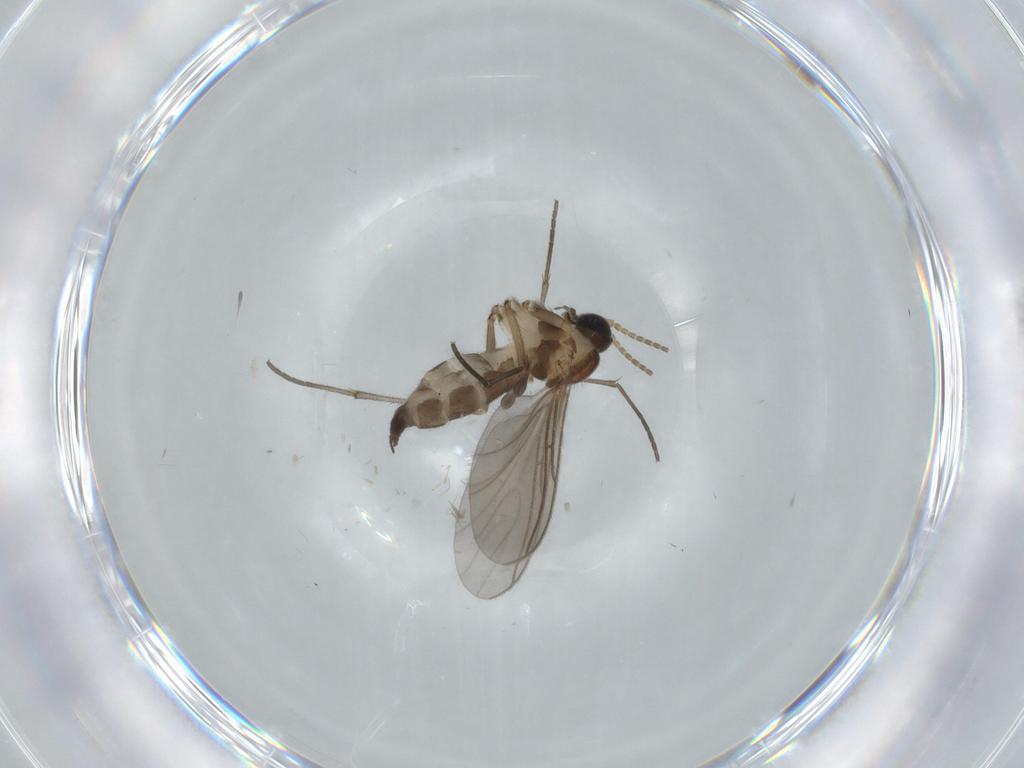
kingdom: Animalia
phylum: Arthropoda
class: Insecta
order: Diptera
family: Sciaridae
